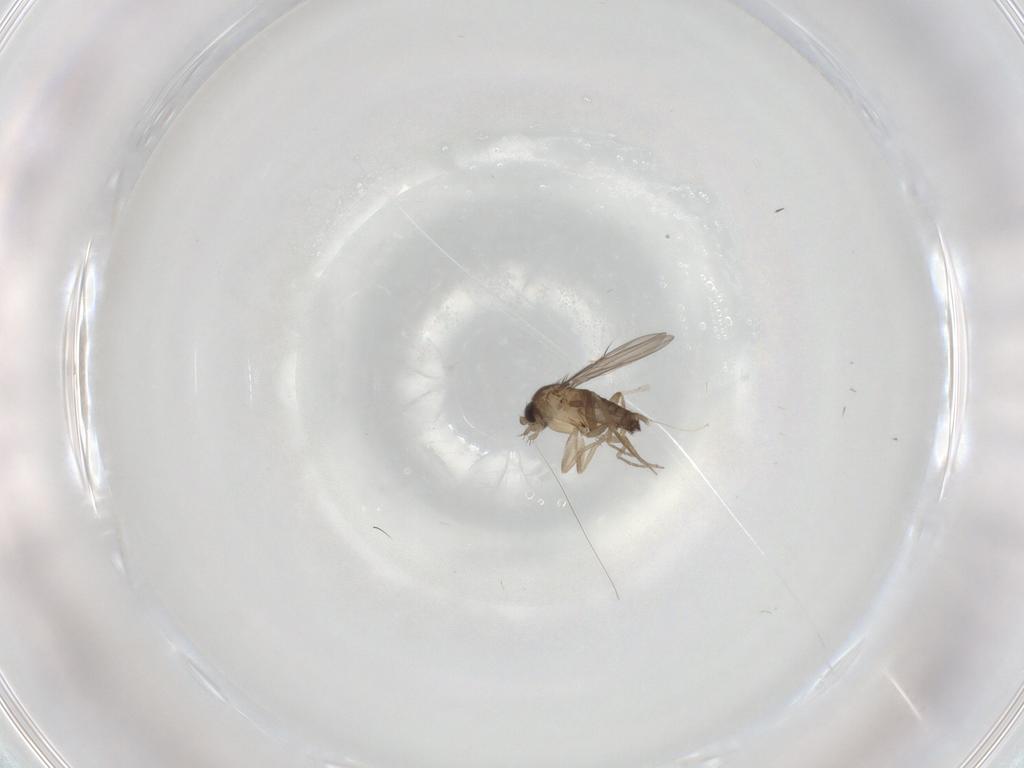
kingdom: Animalia
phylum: Arthropoda
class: Insecta
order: Diptera
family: Phoridae
